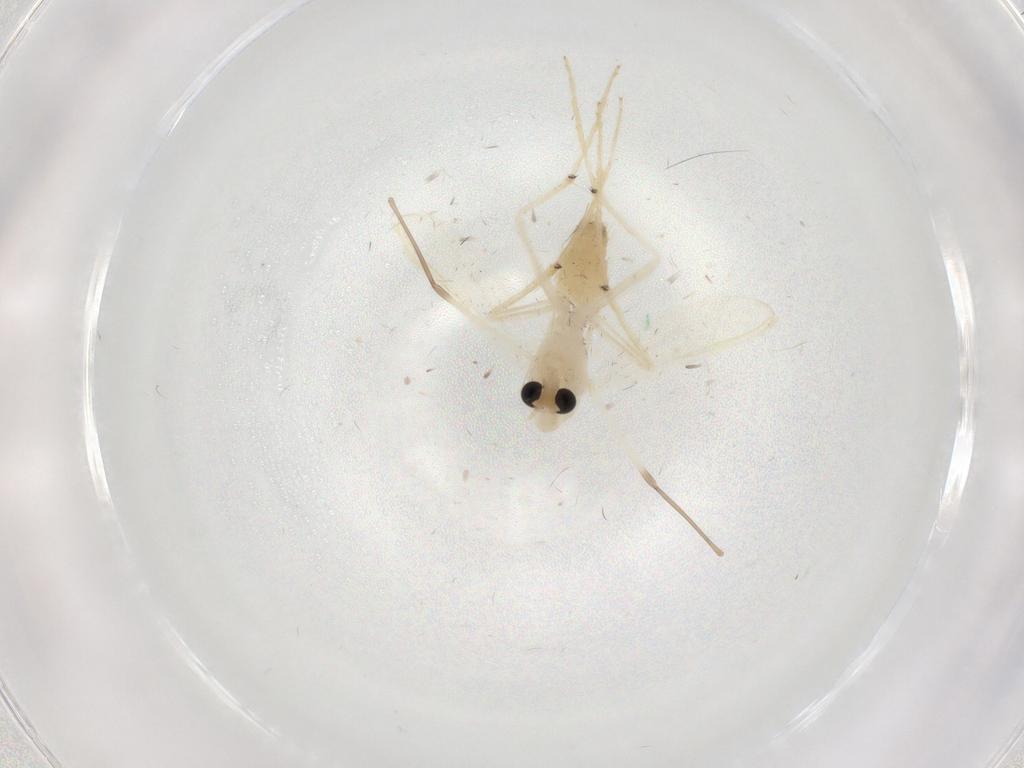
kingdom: Animalia
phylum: Arthropoda
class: Insecta
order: Diptera
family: Chironomidae
